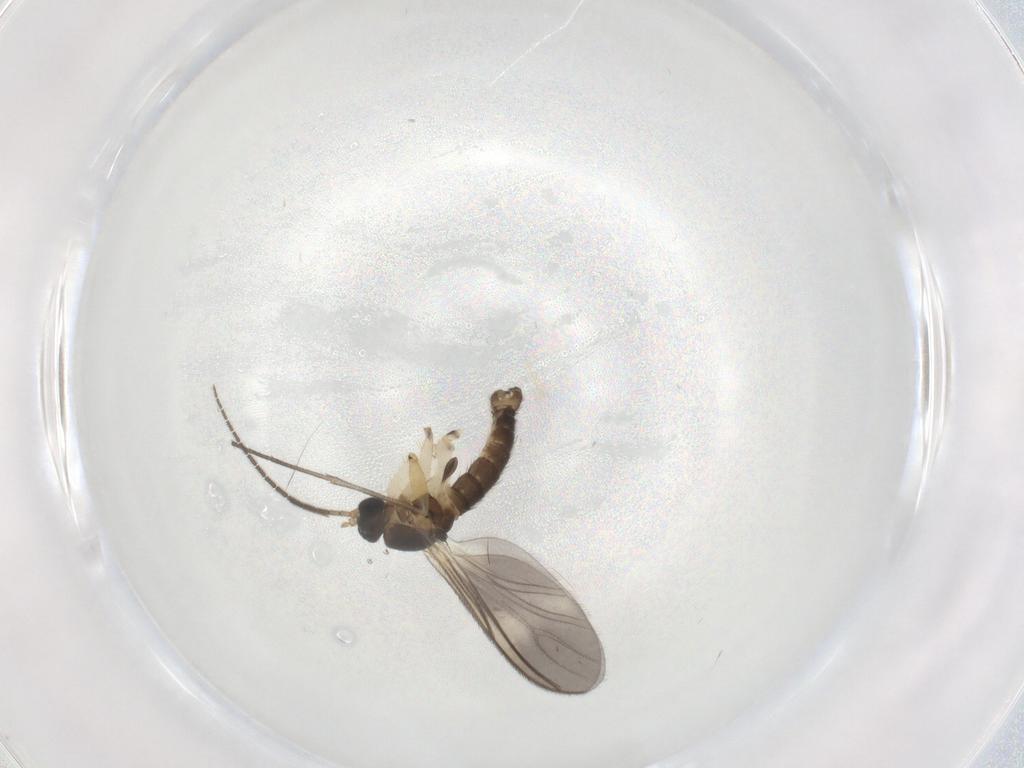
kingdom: Animalia
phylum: Arthropoda
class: Insecta
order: Diptera
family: Sciaridae
